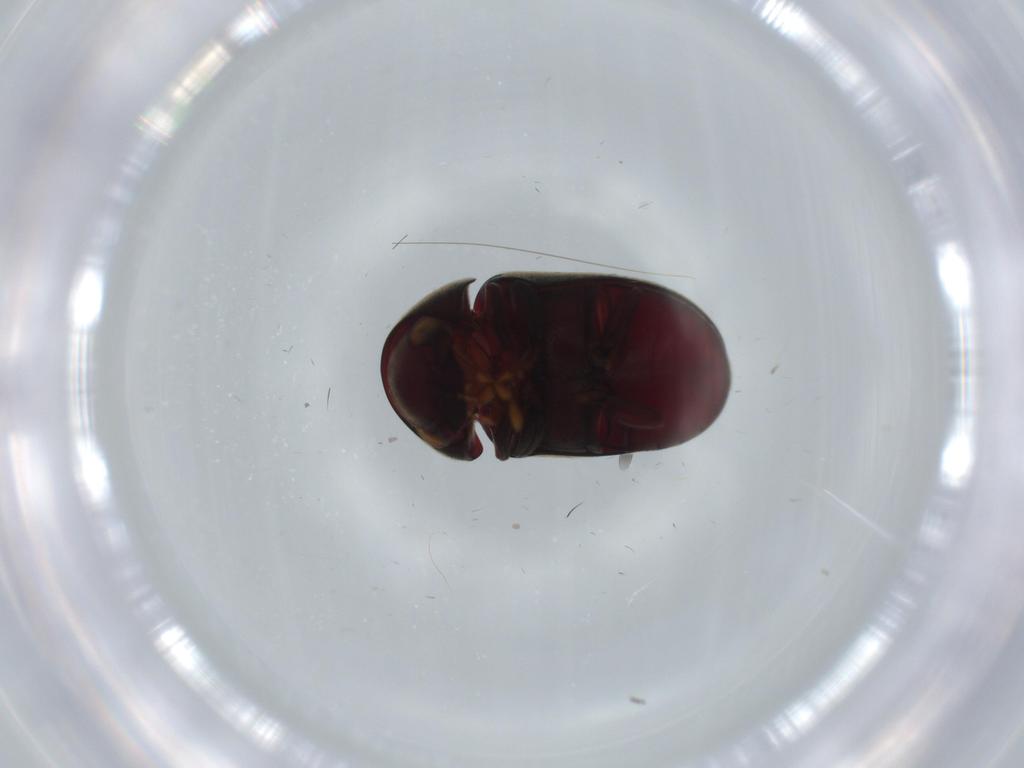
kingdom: Animalia
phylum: Arthropoda
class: Insecta
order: Coleoptera
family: Ptinidae
